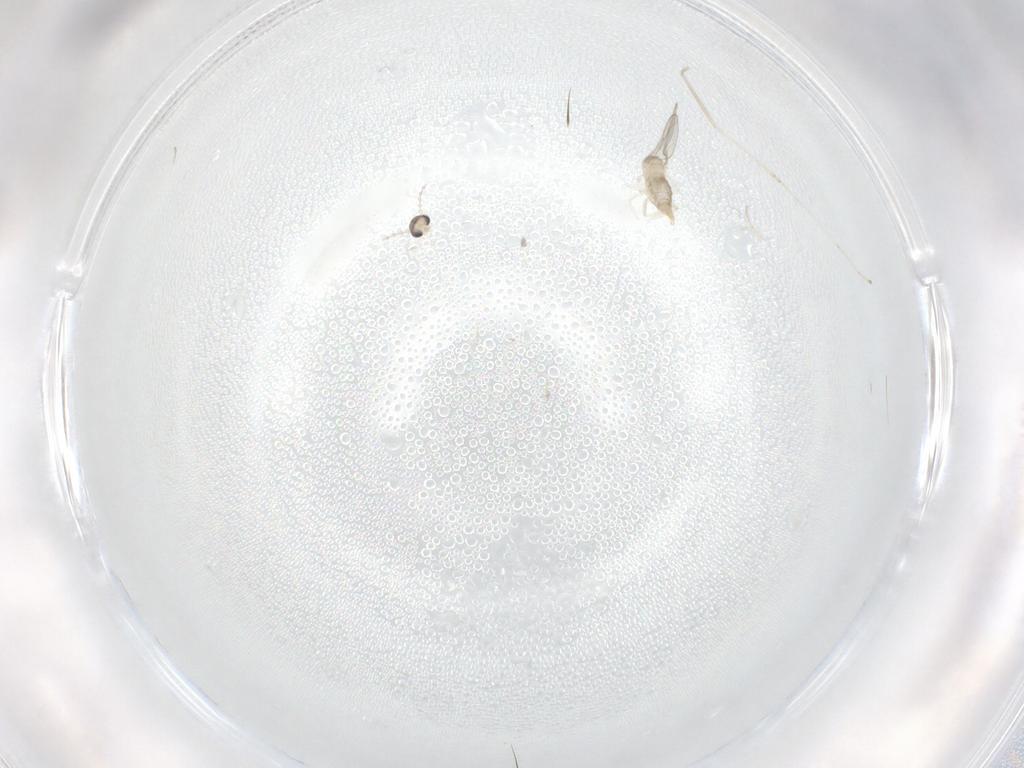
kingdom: Animalia
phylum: Arthropoda
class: Insecta
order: Diptera
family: Cecidomyiidae
